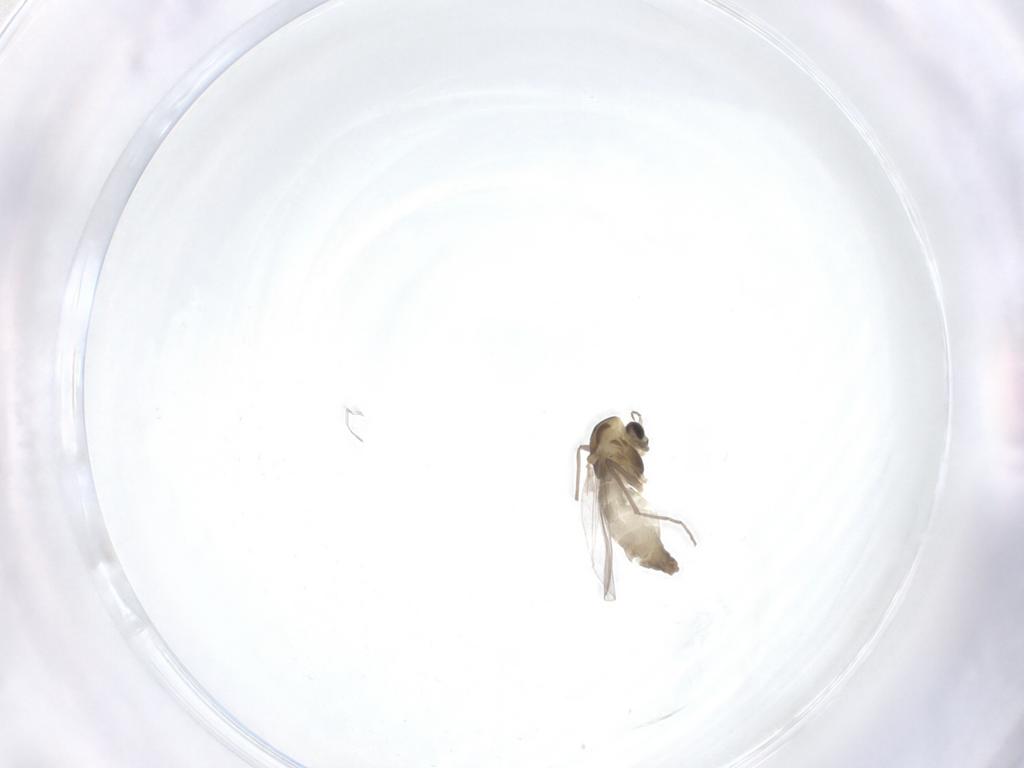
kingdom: Animalia
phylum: Arthropoda
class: Insecta
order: Diptera
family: Chironomidae
